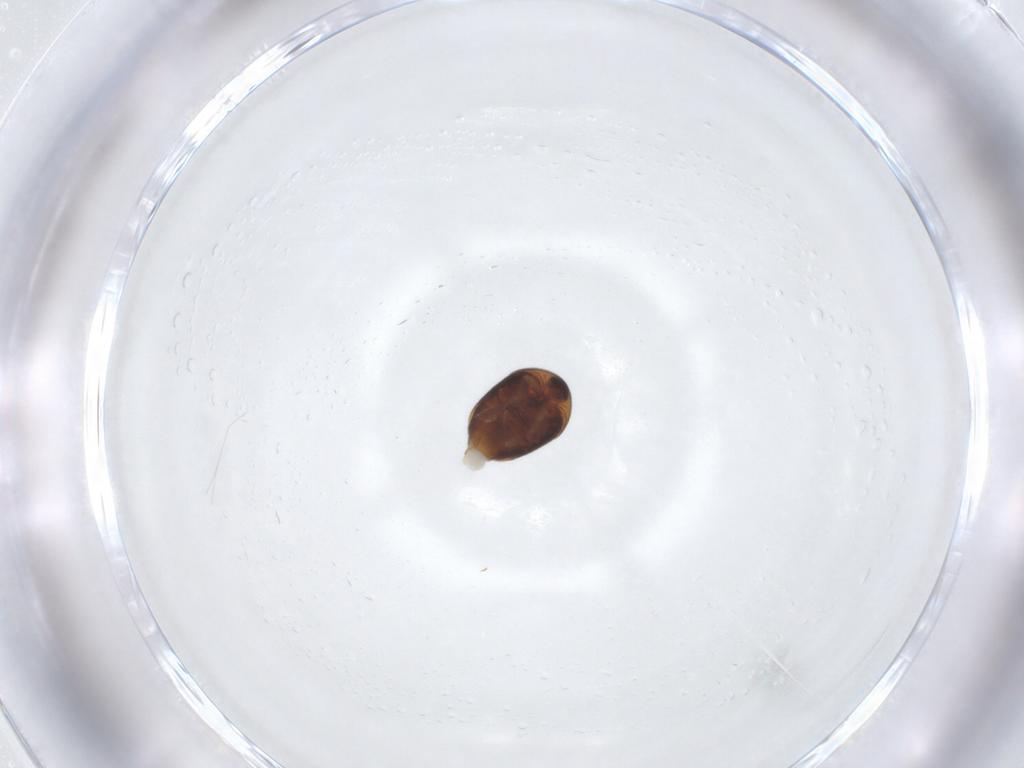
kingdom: Animalia
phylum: Arthropoda
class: Insecta
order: Coleoptera
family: Corylophidae
